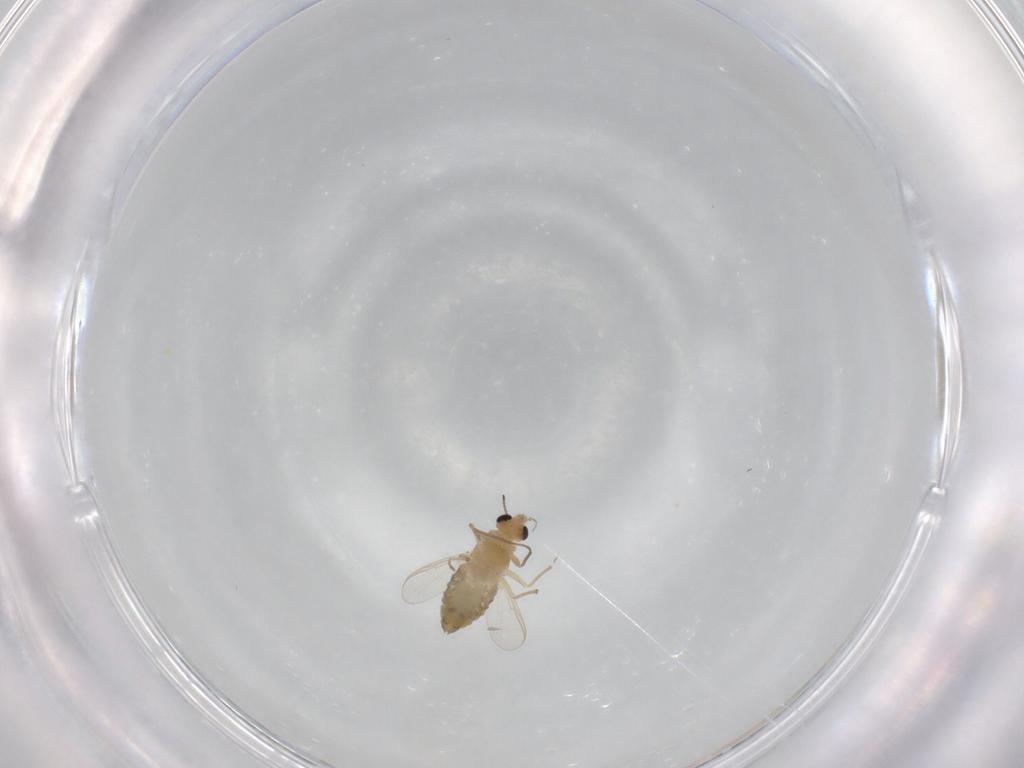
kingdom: Animalia
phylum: Arthropoda
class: Insecta
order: Diptera
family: Chironomidae
